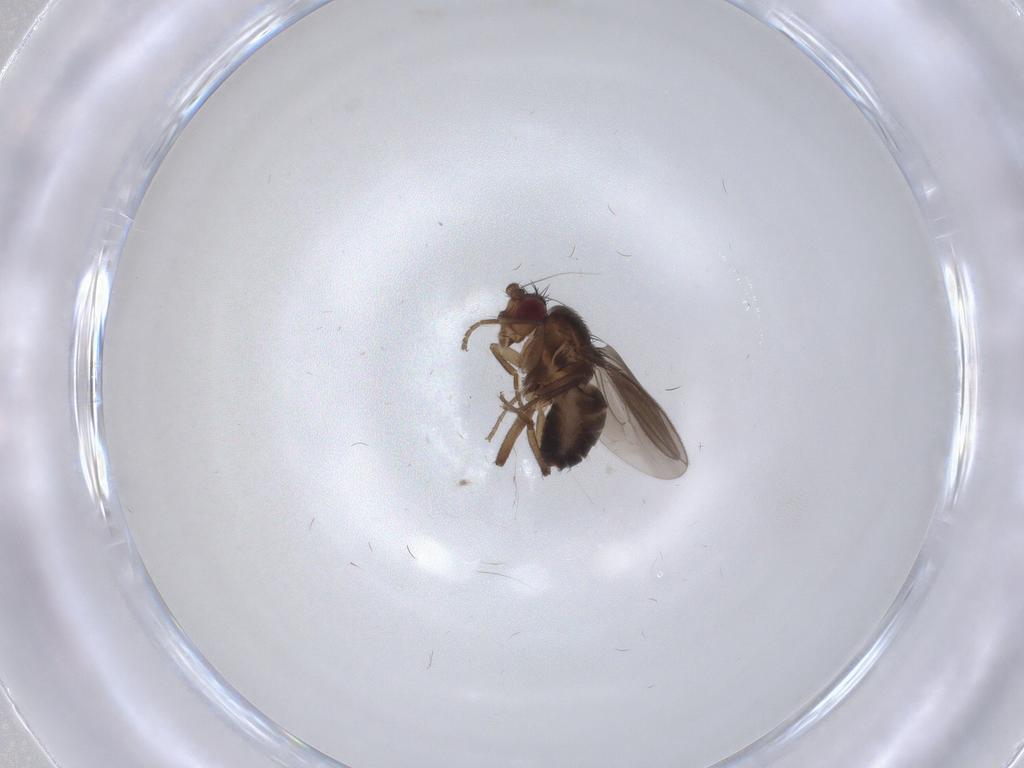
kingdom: Animalia
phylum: Arthropoda
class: Insecta
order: Diptera
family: Sphaeroceridae
